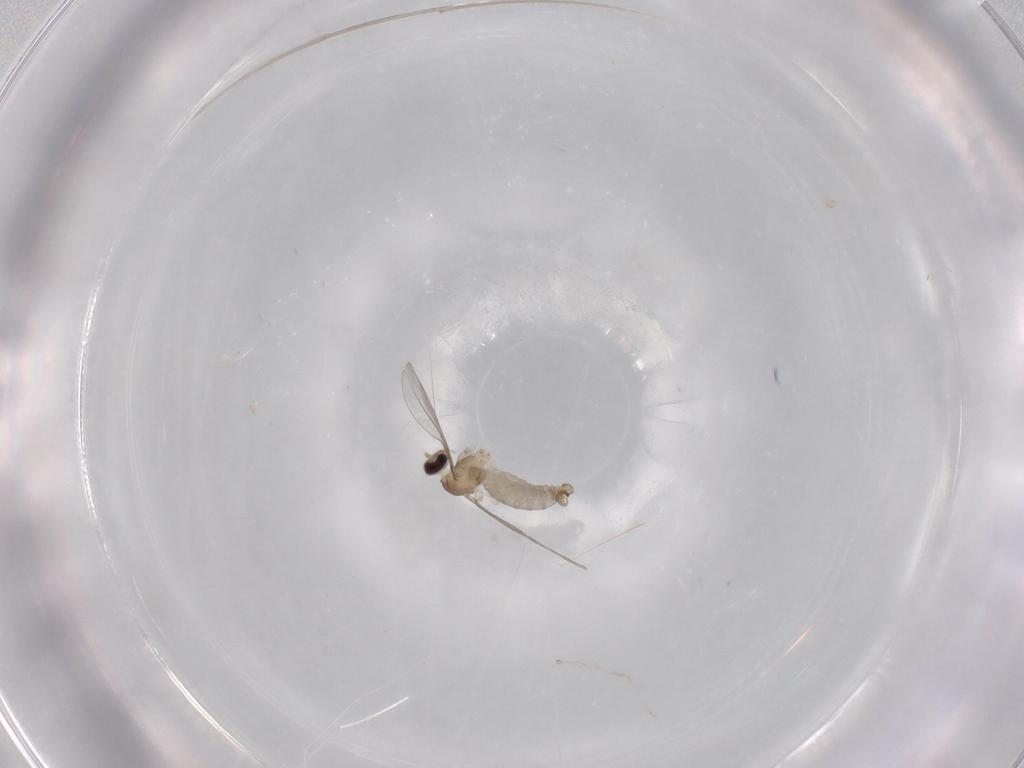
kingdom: Animalia
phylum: Arthropoda
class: Insecta
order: Diptera
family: Cecidomyiidae
